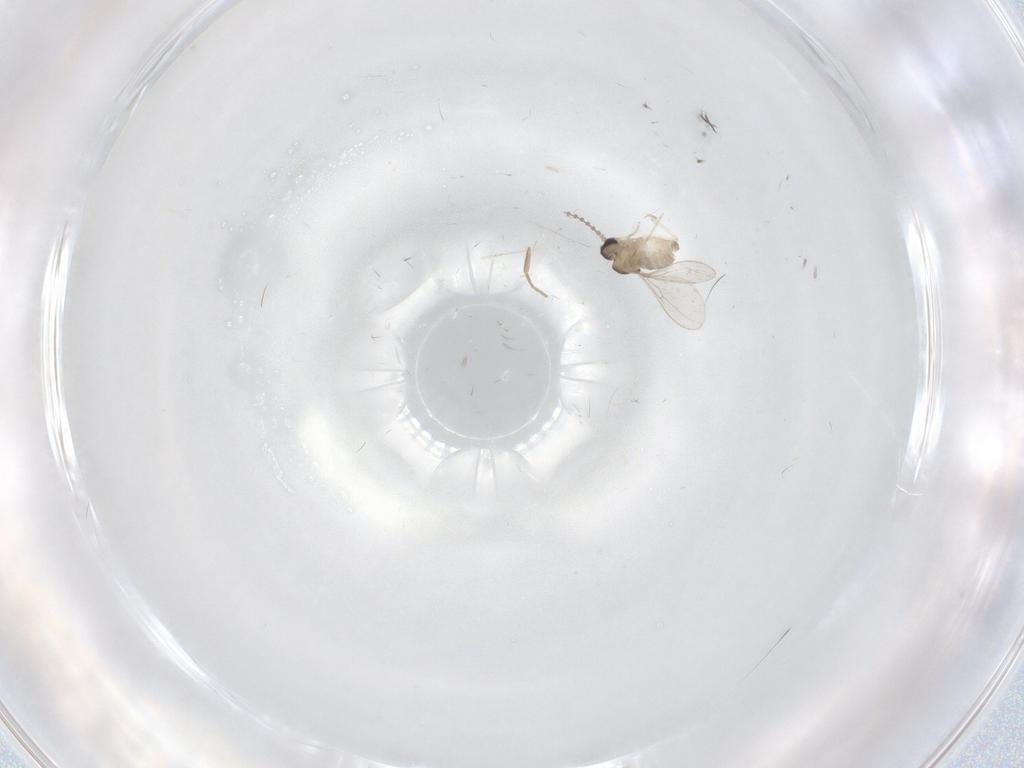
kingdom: Animalia
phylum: Arthropoda
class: Insecta
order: Diptera
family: Cecidomyiidae
